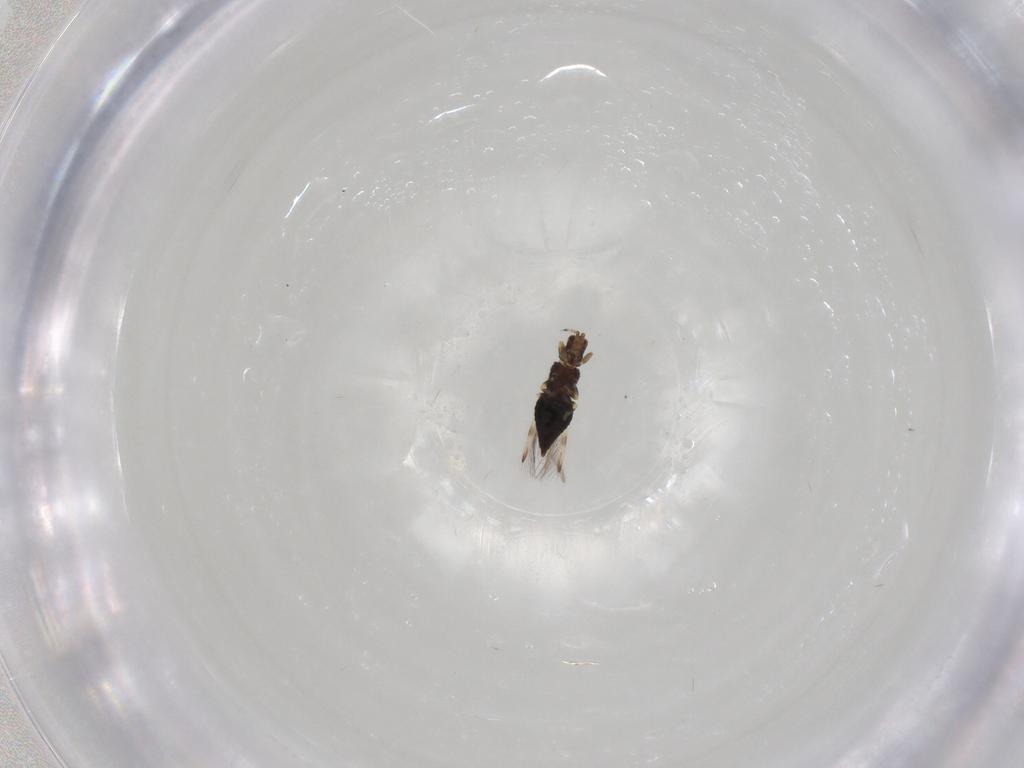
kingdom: Animalia
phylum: Arthropoda
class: Insecta
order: Thysanoptera
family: Thripidae
